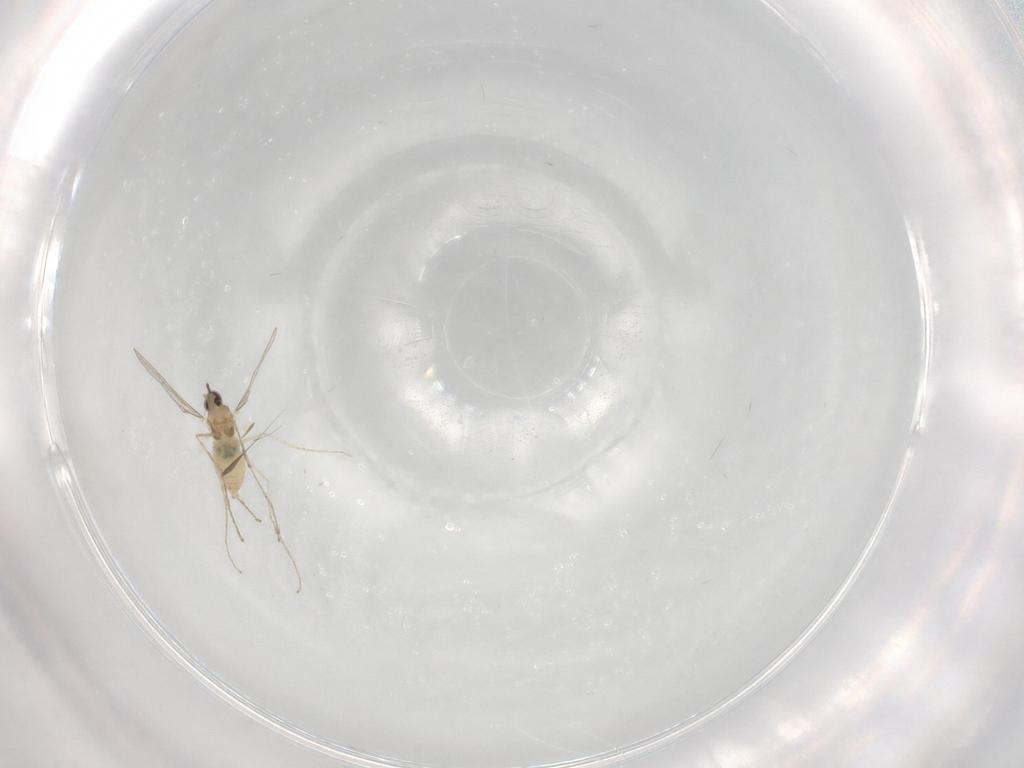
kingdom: Animalia
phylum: Arthropoda
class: Insecta
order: Diptera
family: Cecidomyiidae
